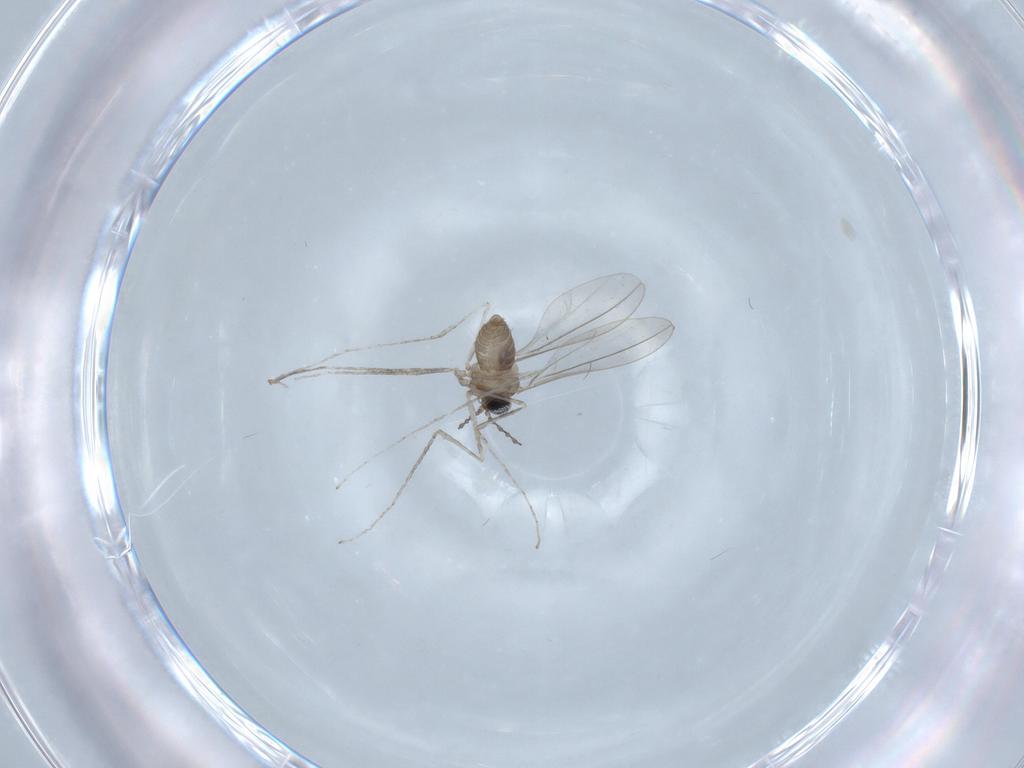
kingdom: Animalia
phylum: Arthropoda
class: Insecta
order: Diptera
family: Cecidomyiidae
